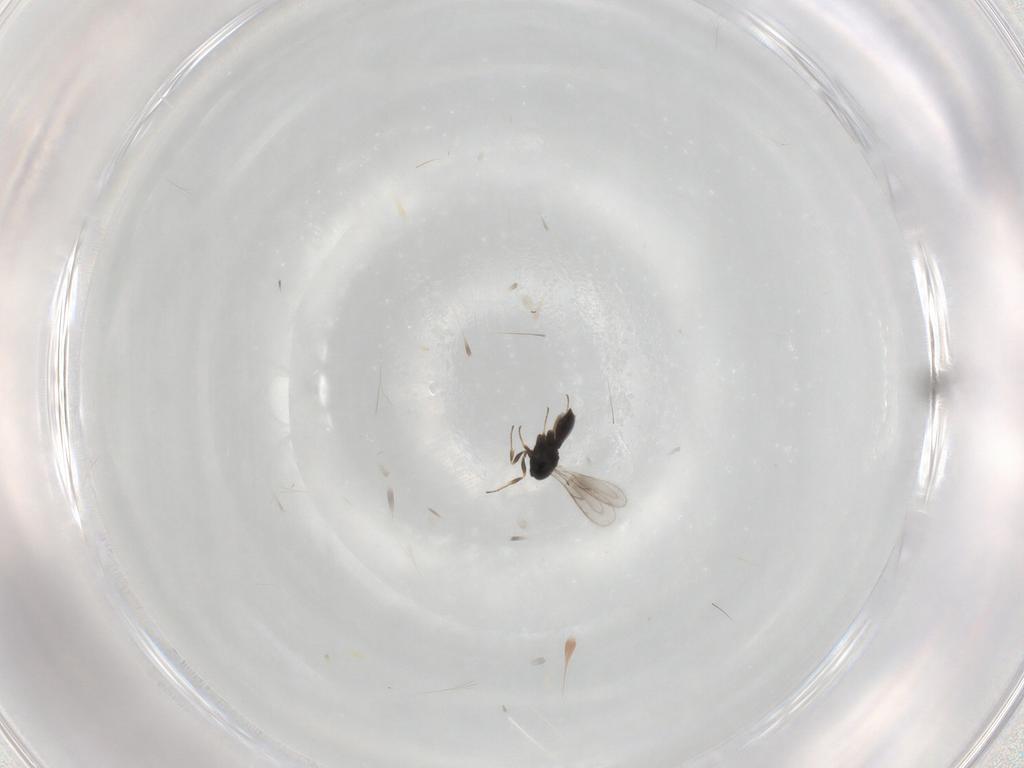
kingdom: Animalia
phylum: Arthropoda
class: Insecta
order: Hymenoptera
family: Scelionidae
